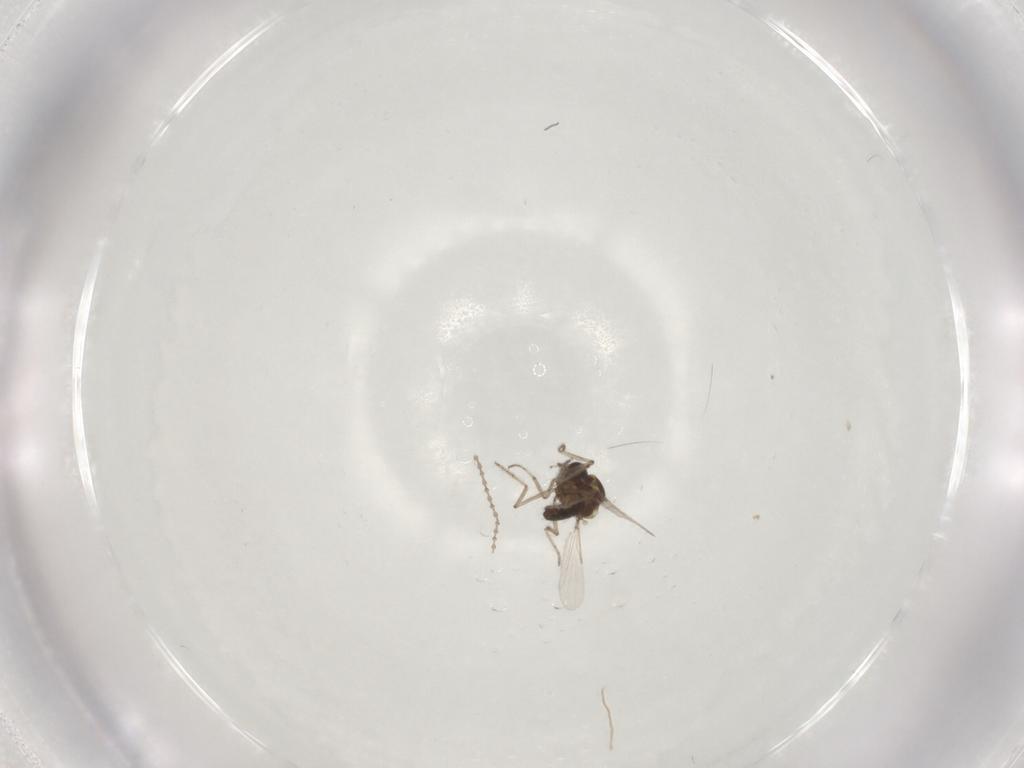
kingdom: Animalia
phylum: Arthropoda
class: Insecta
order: Diptera
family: Ceratopogonidae
